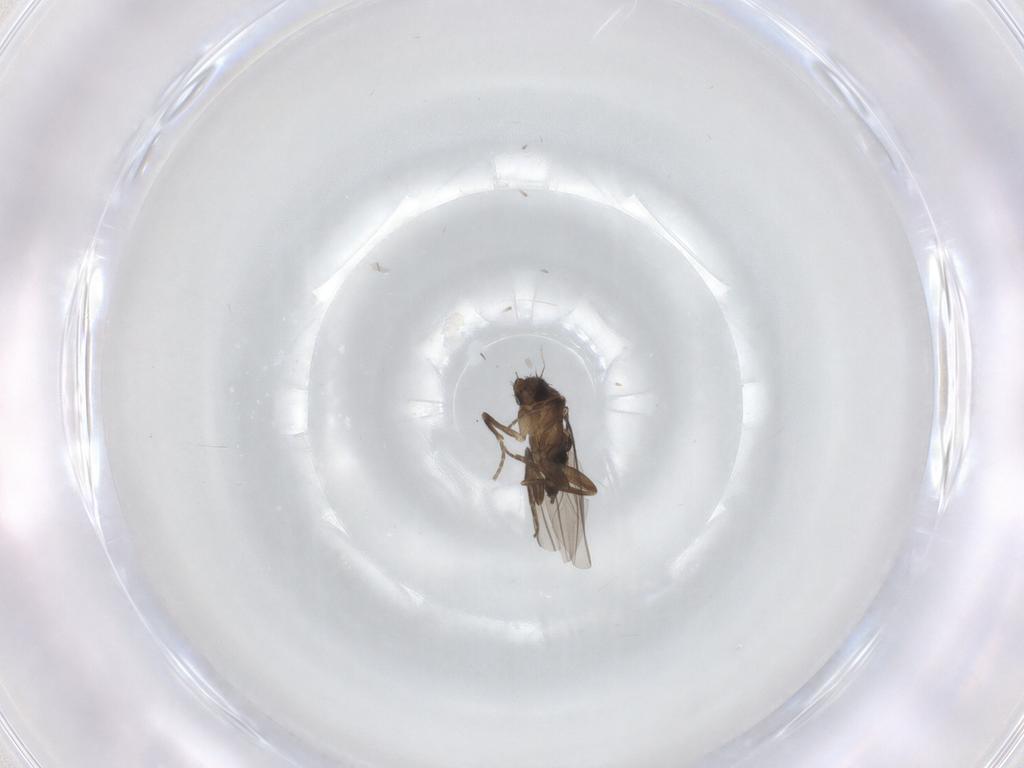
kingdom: Animalia
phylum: Arthropoda
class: Insecta
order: Diptera
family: Phoridae
